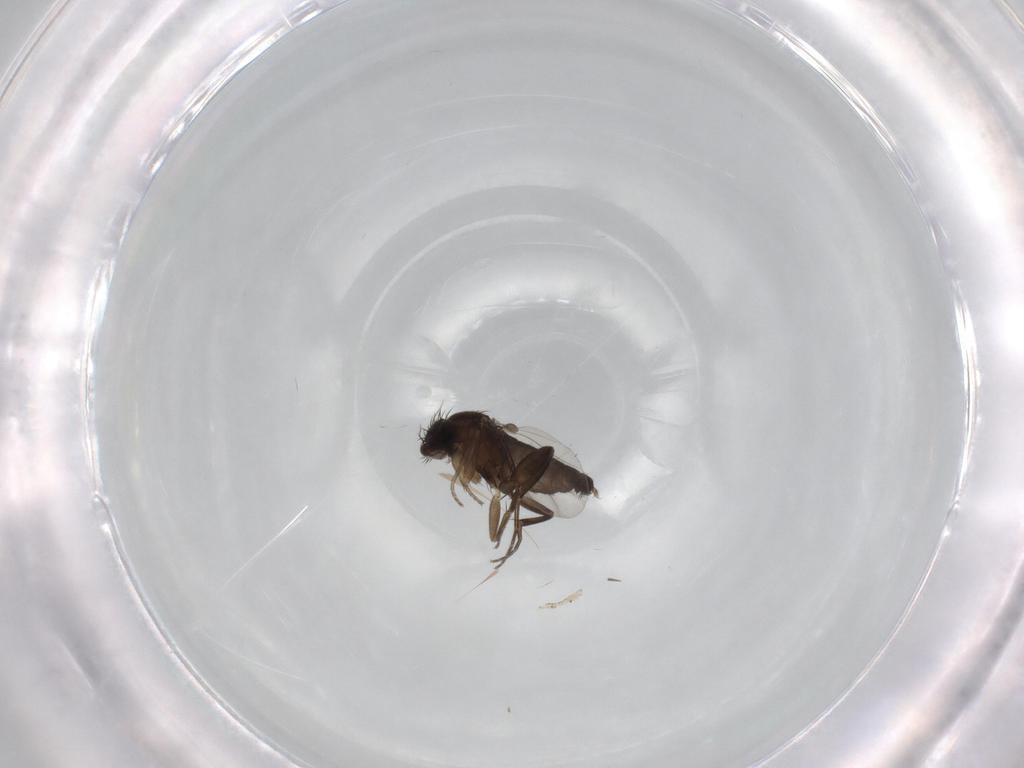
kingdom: Animalia
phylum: Arthropoda
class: Insecta
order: Diptera
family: Phoridae
